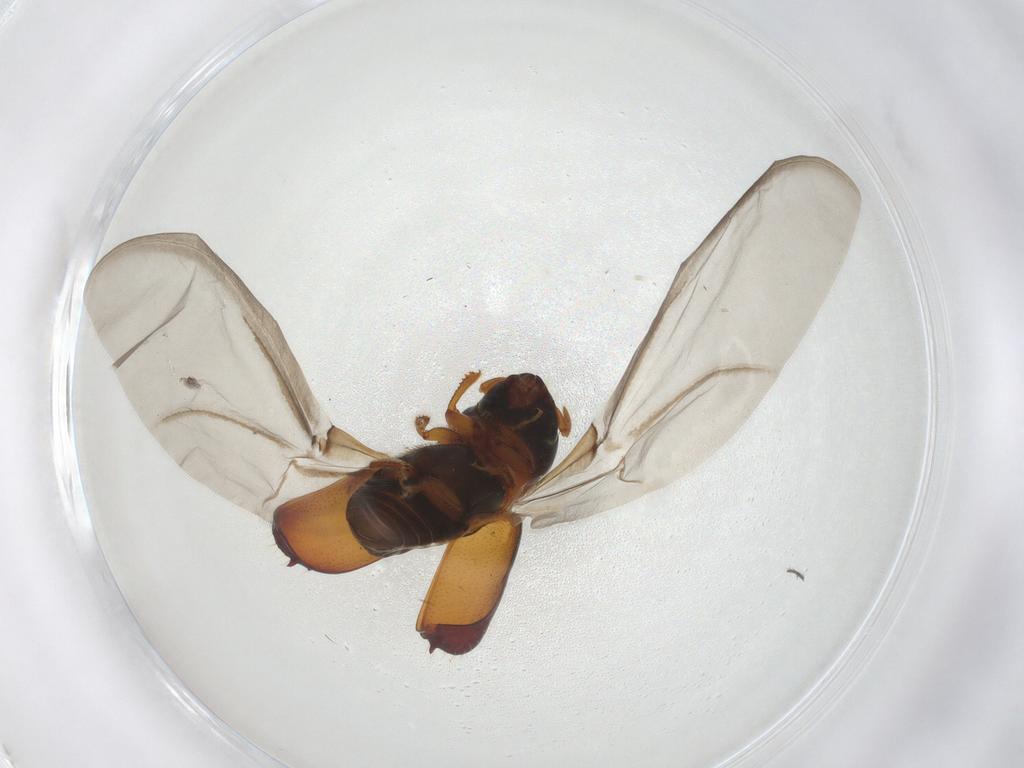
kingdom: Animalia
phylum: Arthropoda
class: Insecta
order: Coleoptera
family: Curculionidae
